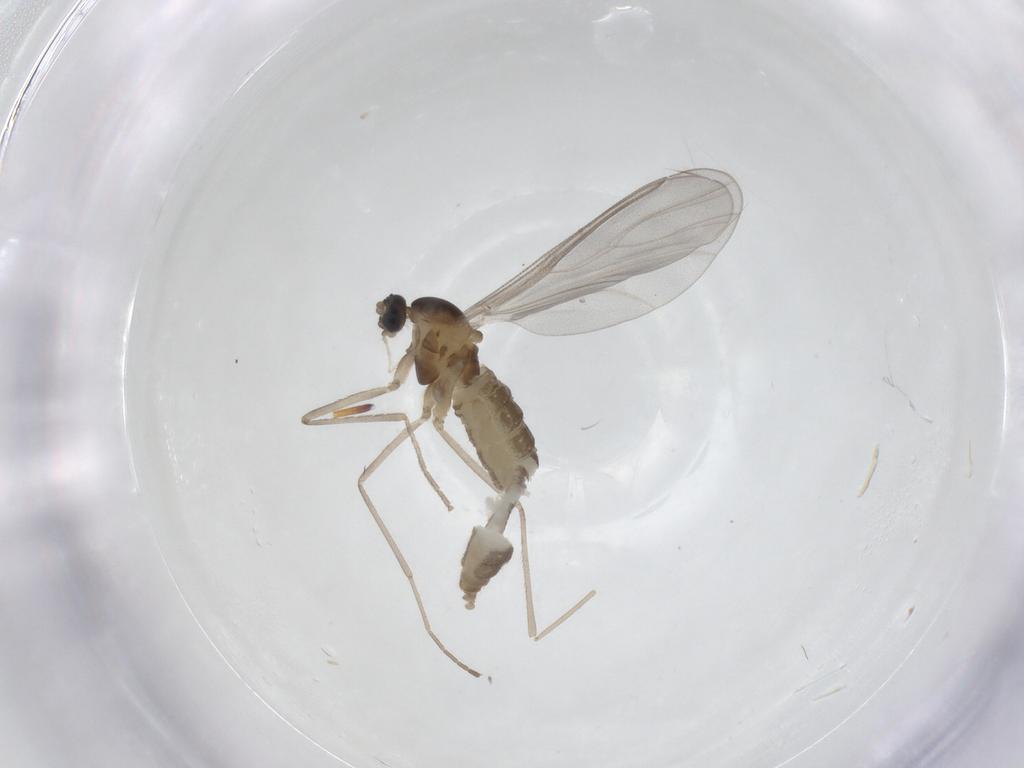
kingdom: Animalia
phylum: Arthropoda
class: Insecta
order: Diptera
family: Cecidomyiidae
